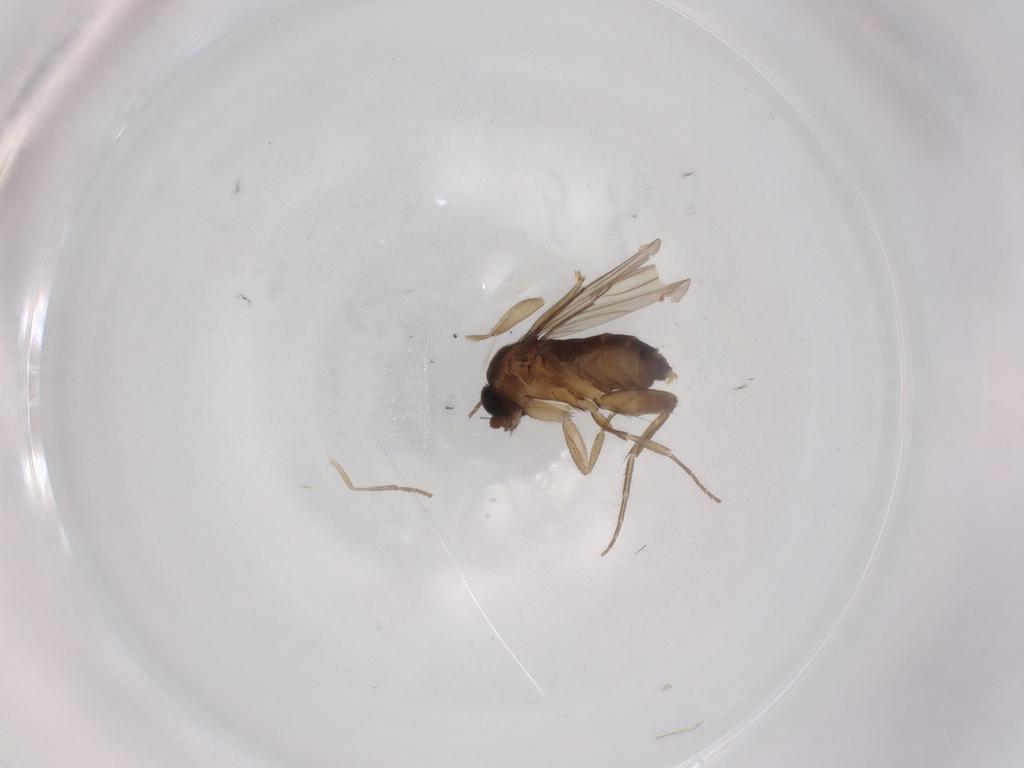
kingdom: Animalia
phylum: Arthropoda
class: Insecta
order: Diptera
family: Phoridae
